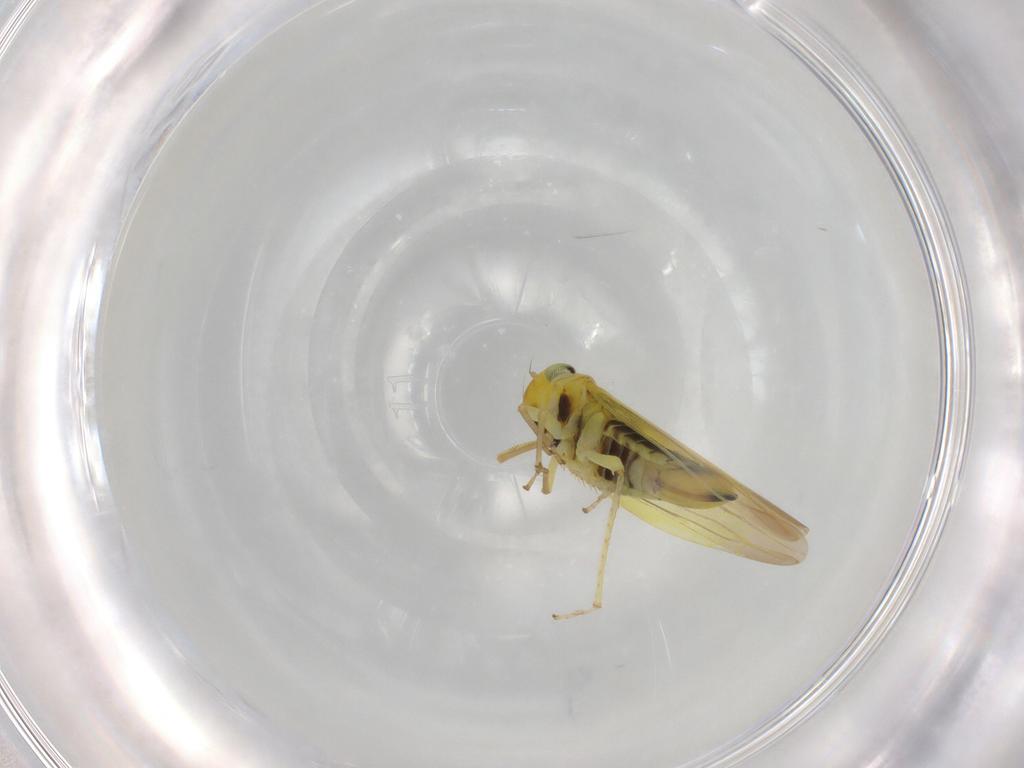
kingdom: Animalia
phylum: Arthropoda
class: Insecta
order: Hemiptera
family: Cicadellidae
